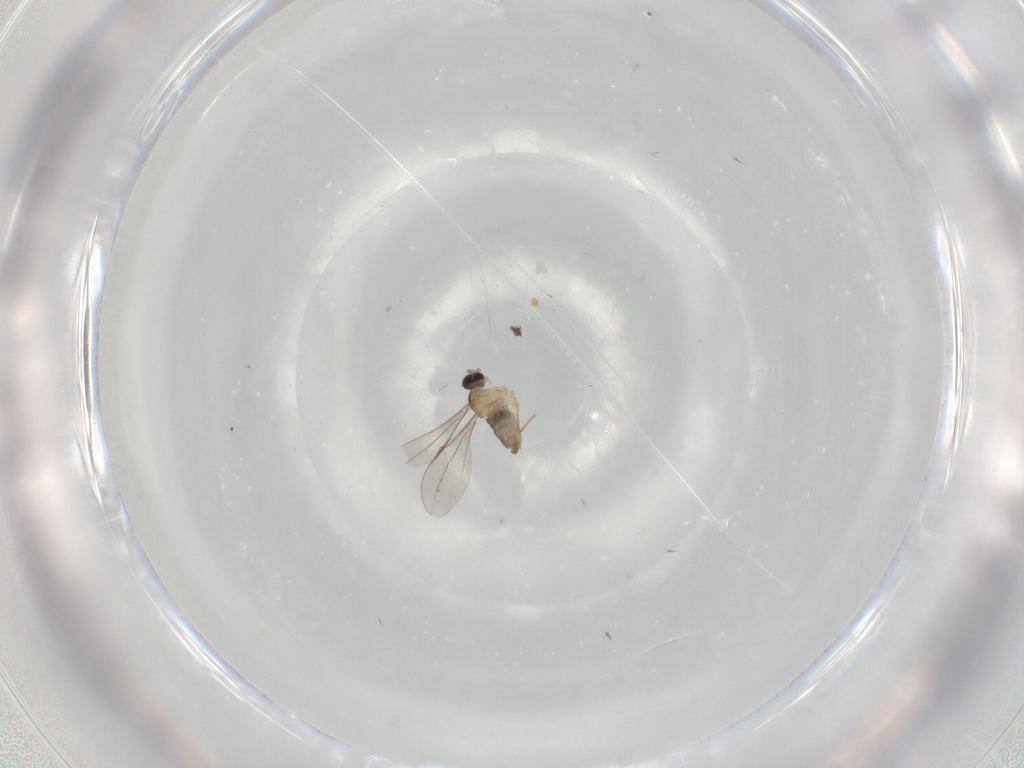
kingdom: Animalia
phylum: Arthropoda
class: Insecta
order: Diptera
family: Cecidomyiidae
